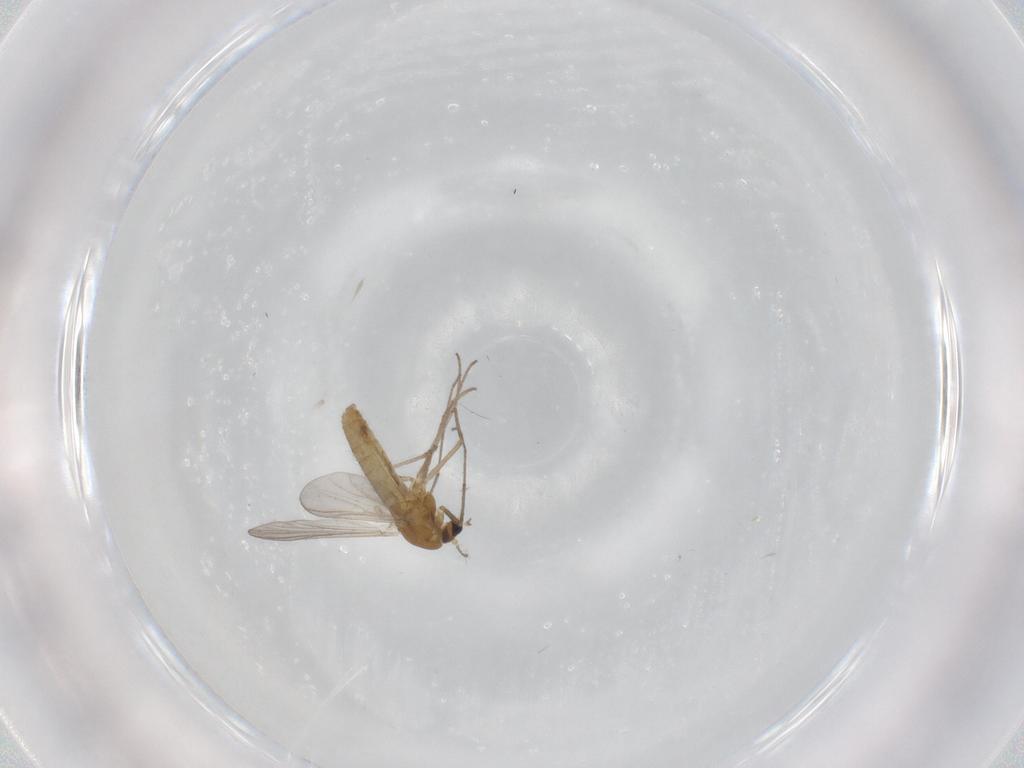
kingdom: Animalia
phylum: Arthropoda
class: Insecta
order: Diptera
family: Chironomidae
